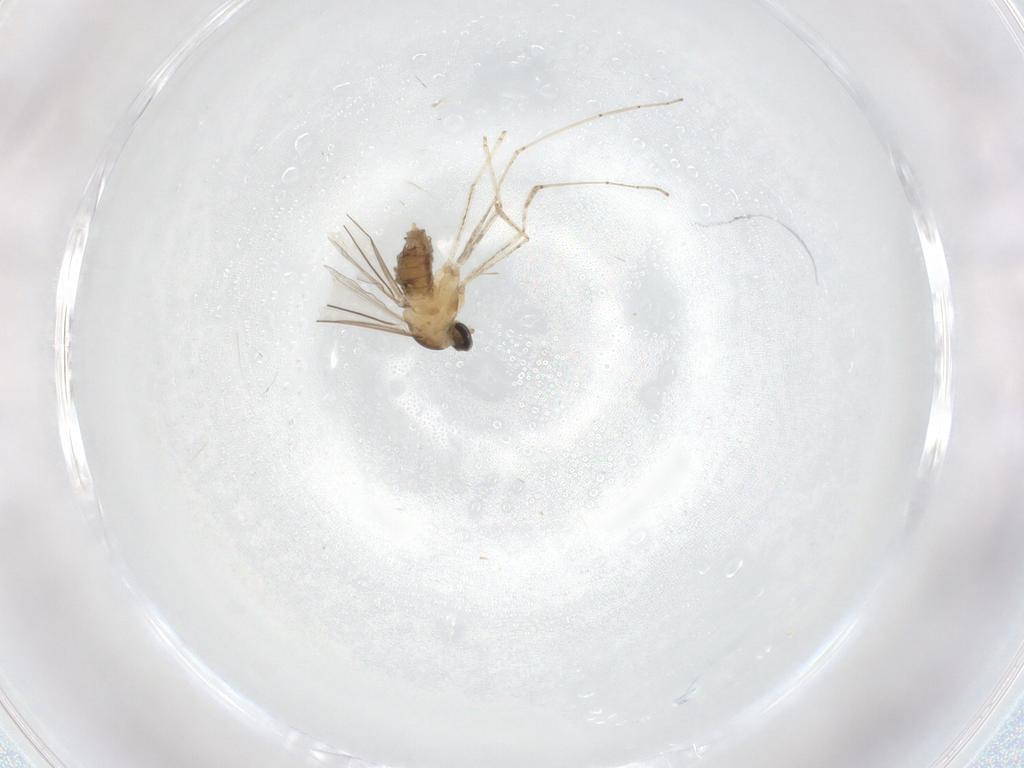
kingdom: Animalia
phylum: Arthropoda
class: Insecta
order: Diptera
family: Cecidomyiidae
